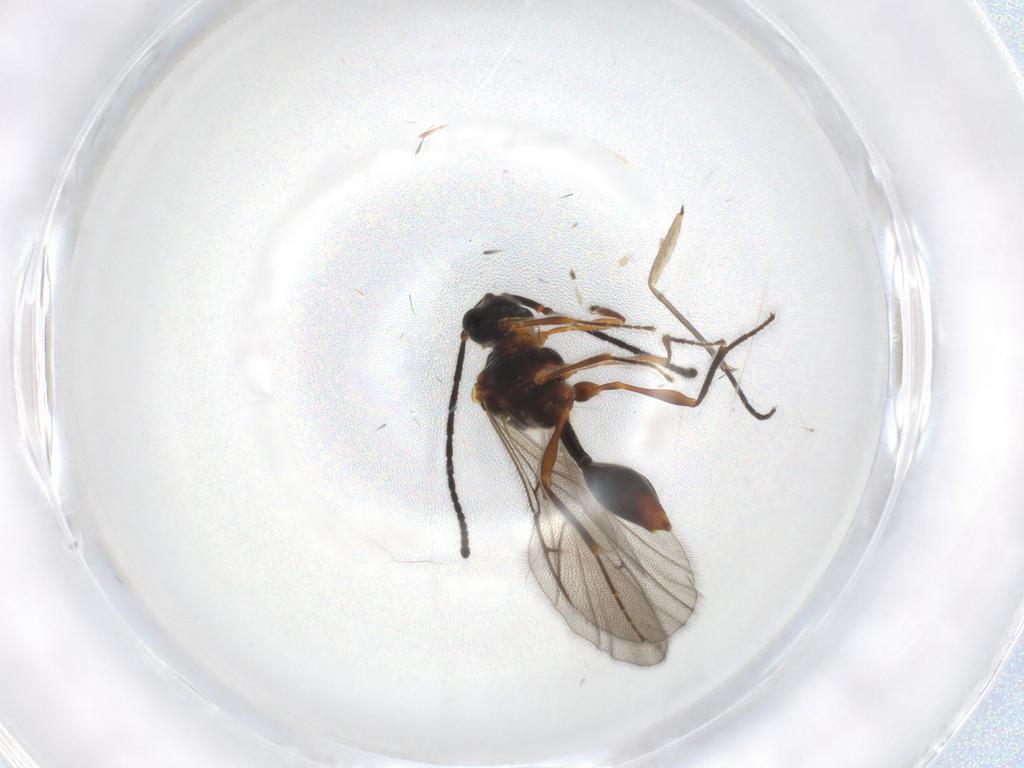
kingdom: Animalia
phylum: Arthropoda
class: Insecta
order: Hymenoptera
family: Diapriidae
